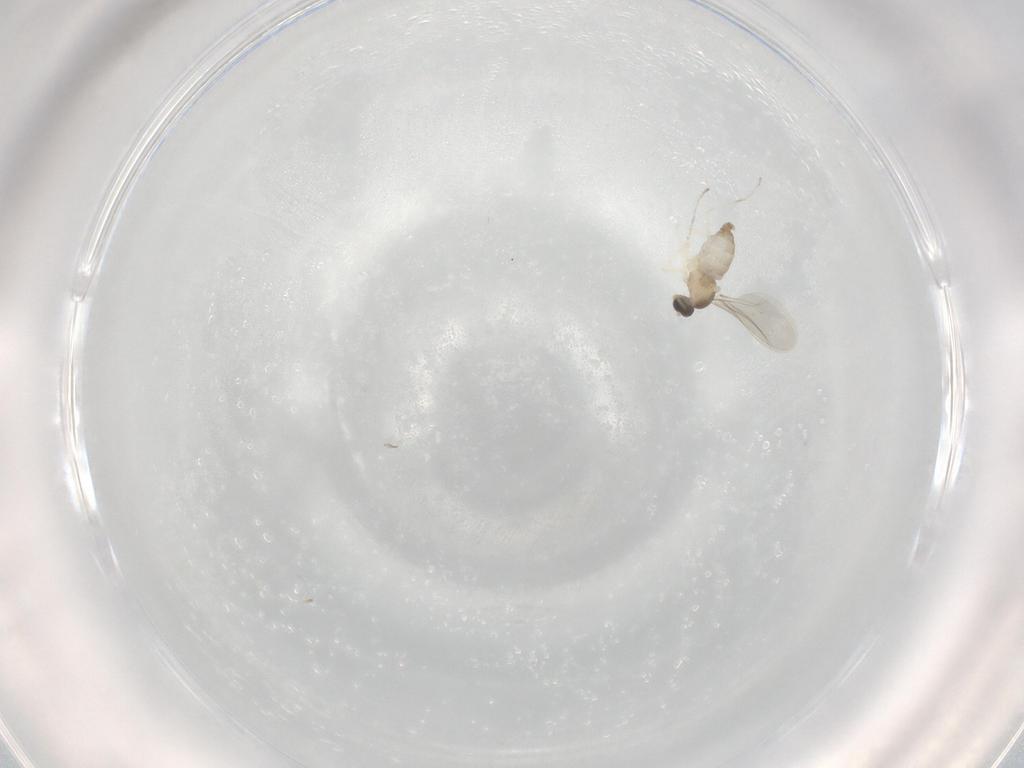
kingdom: Animalia
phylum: Arthropoda
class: Insecta
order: Diptera
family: Cecidomyiidae
